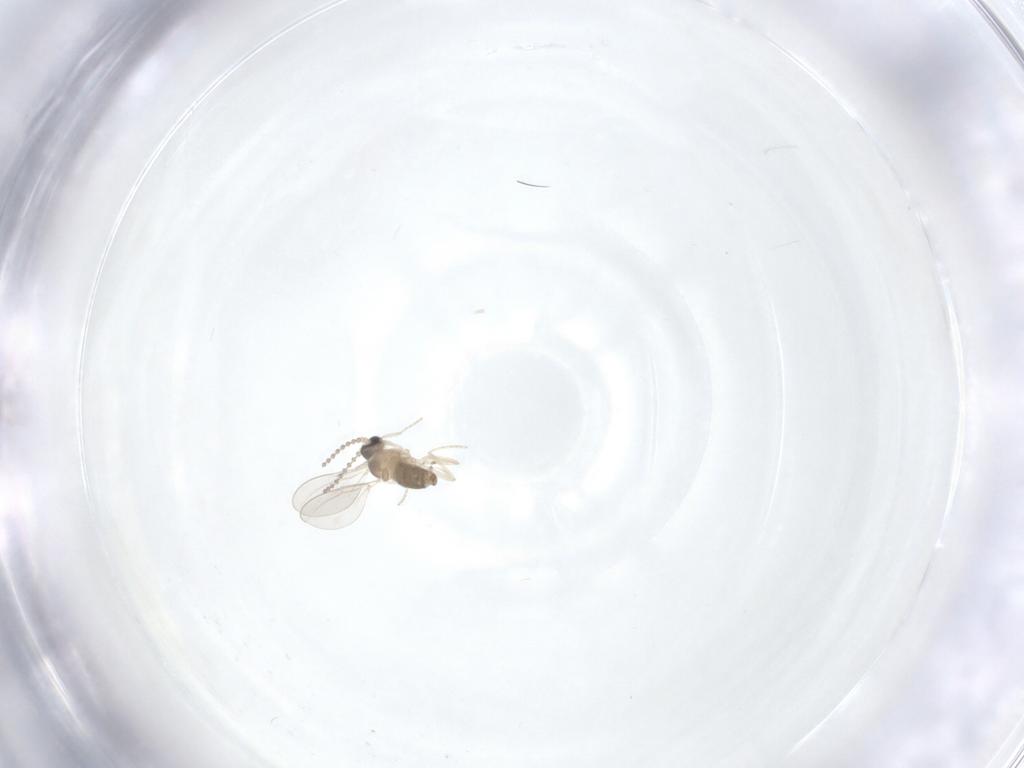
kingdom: Animalia
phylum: Arthropoda
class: Insecta
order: Diptera
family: Cecidomyiidae
